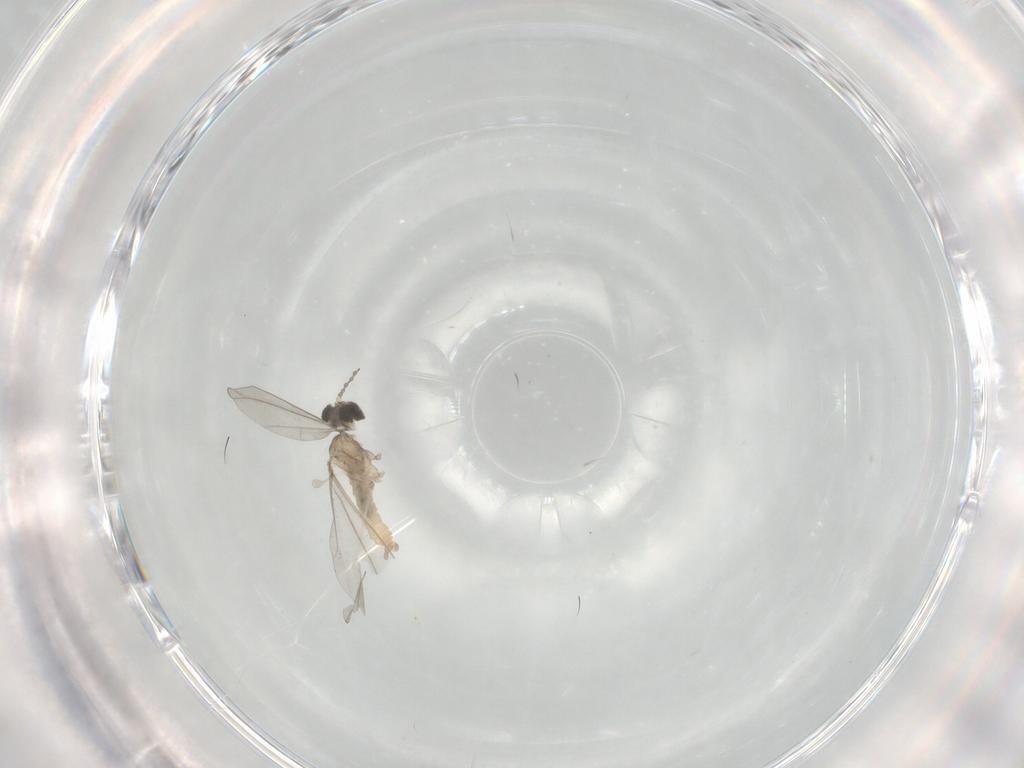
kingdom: Animalia
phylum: Arthropoda
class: Insecta
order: Diptera
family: Cecidomyiidae
